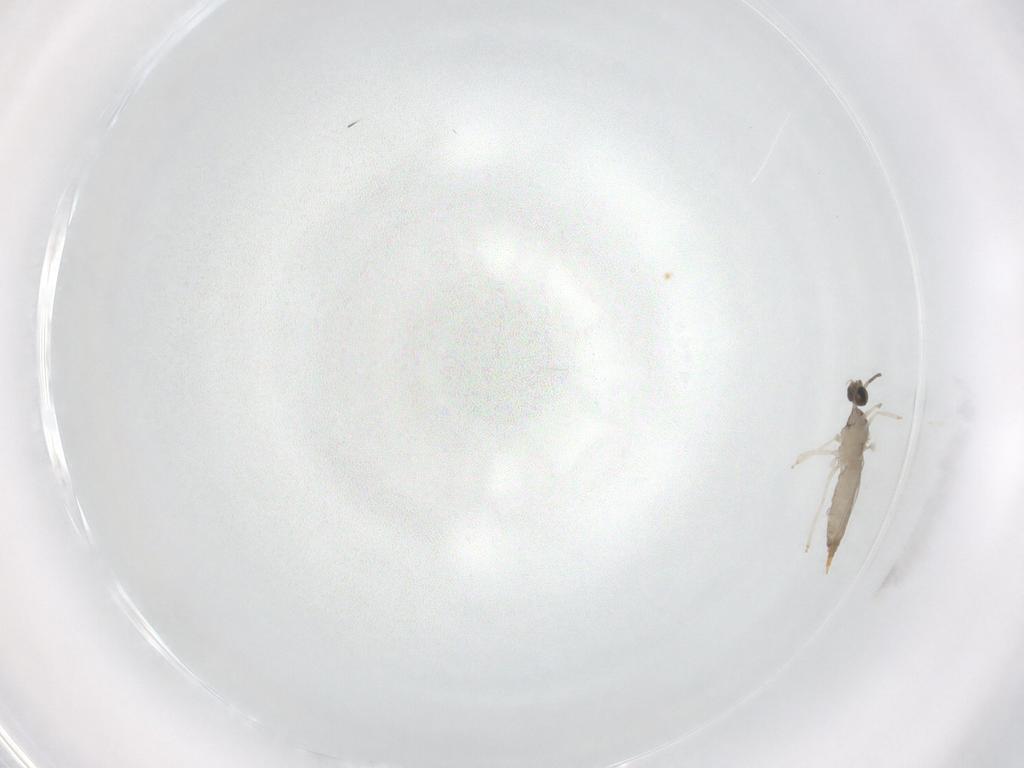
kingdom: Animalia
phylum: Arthropoda
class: Insecta
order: Diptera
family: Cecidomyiidae
